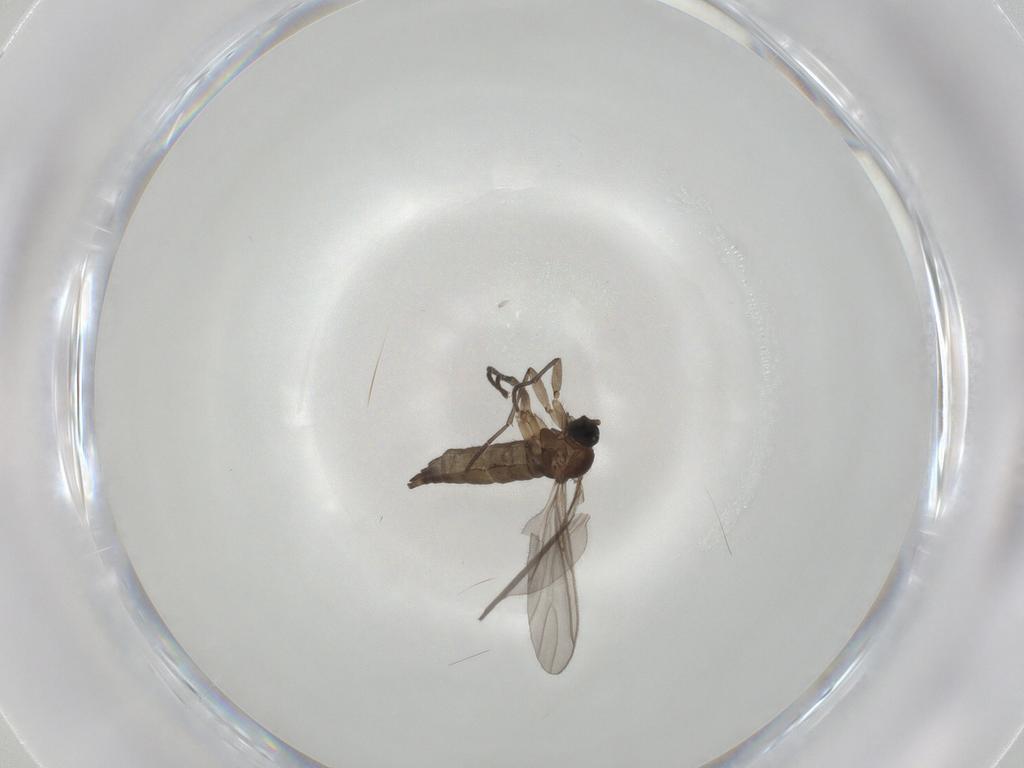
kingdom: Animalia
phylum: Arthropoda
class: Insecta
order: Diptera
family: Sciaridae
